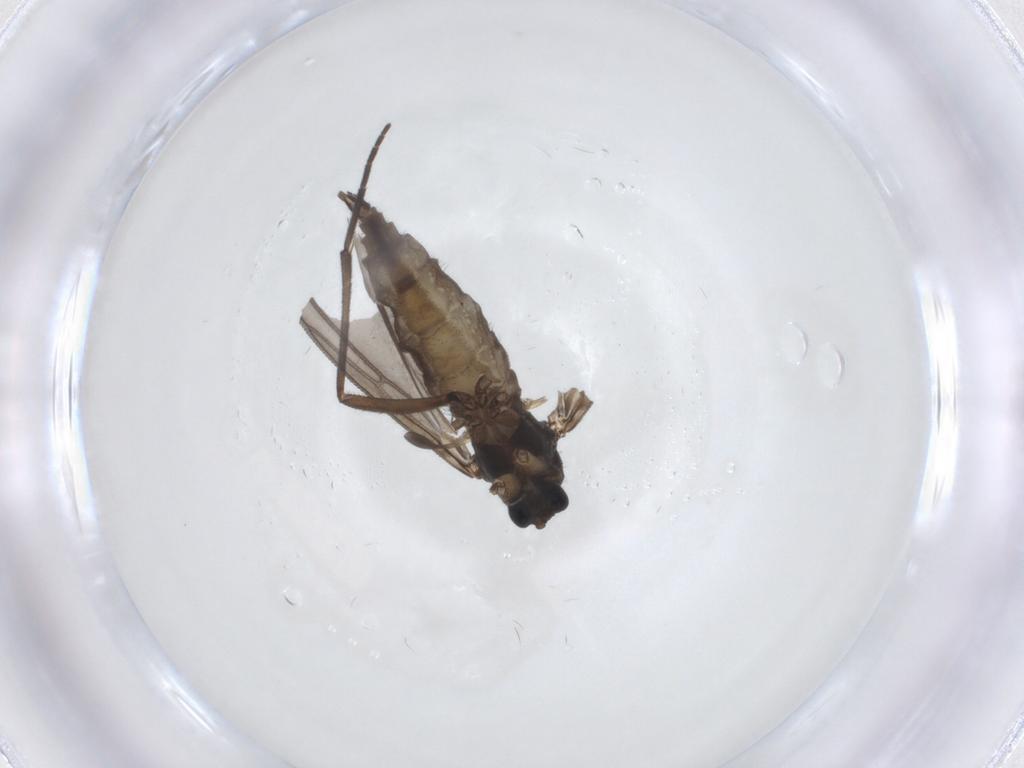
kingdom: Animalia
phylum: Arthropoda
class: Insecta
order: Diptera
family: Sciaridae
